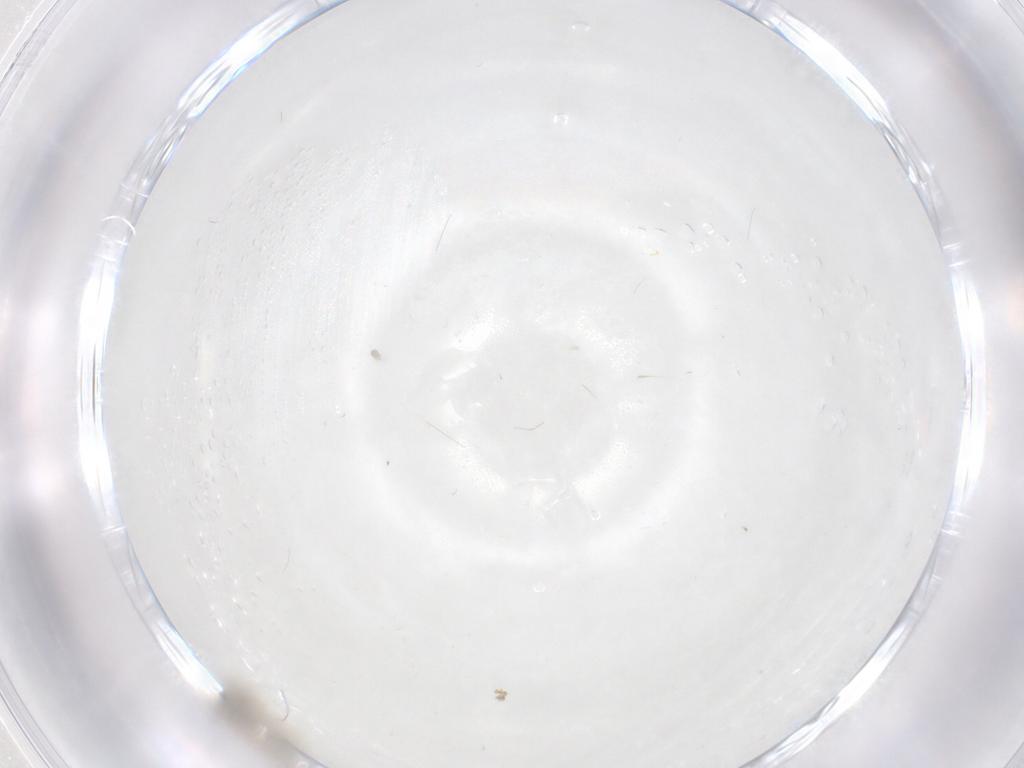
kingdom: Animalia
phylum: Arthropoda
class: Insecta
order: Diptera
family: Cecidomyiidae
